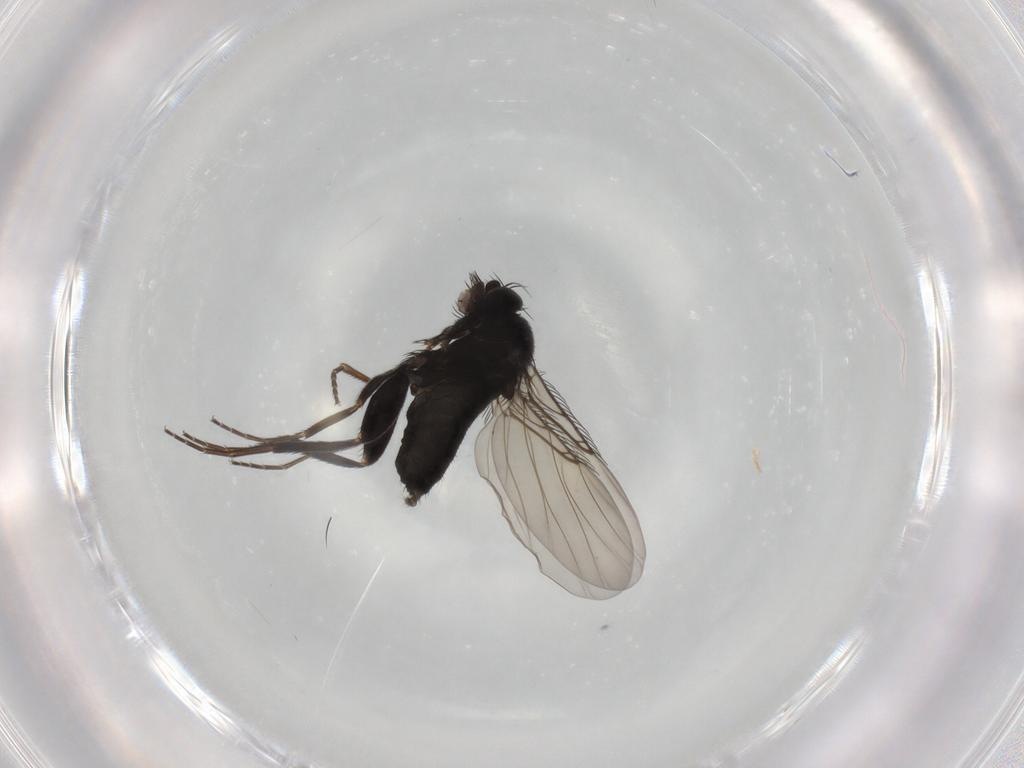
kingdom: Animalia
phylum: Arthropoda
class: Insecta
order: Diptera
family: Phoridae
